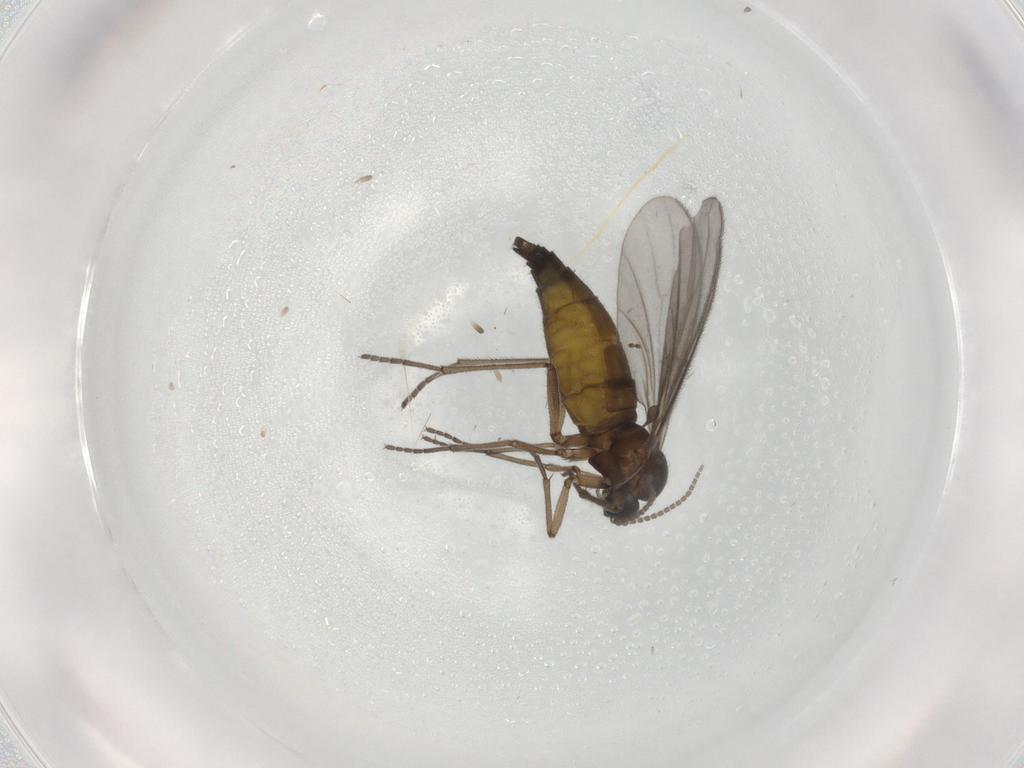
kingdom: Animalia
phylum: Arthropoda
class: Insecta
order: Diptera
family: Sciaridae
